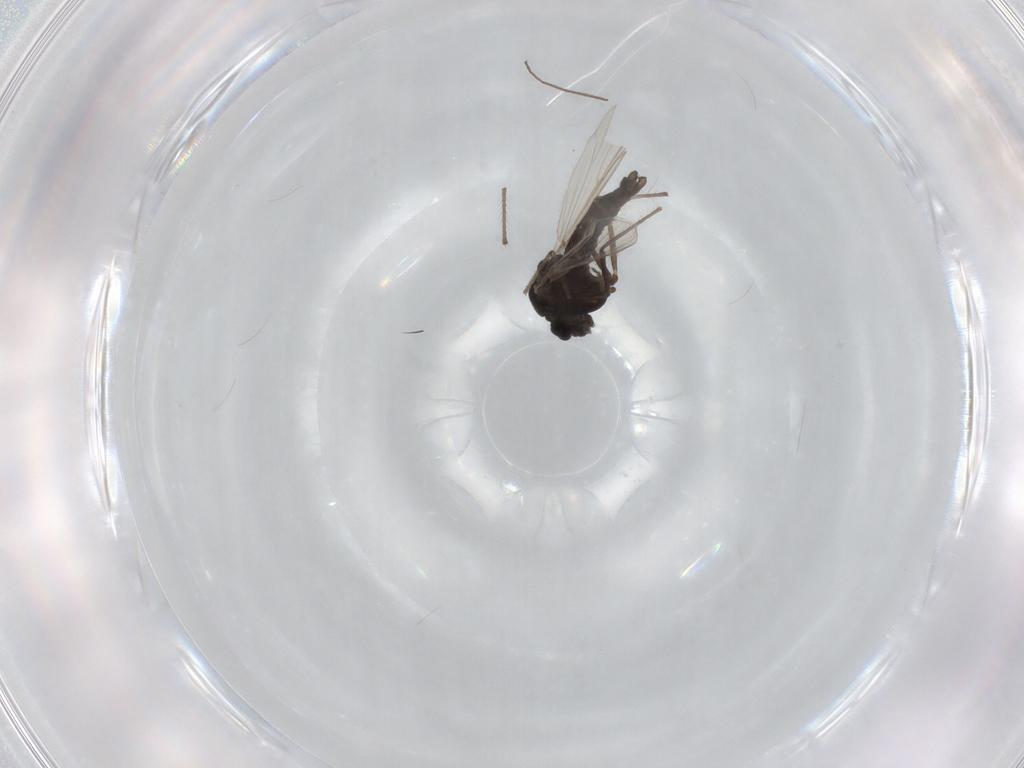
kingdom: Animalia
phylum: Arthropoda
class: Insecta
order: Diptera
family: Chironomidae
